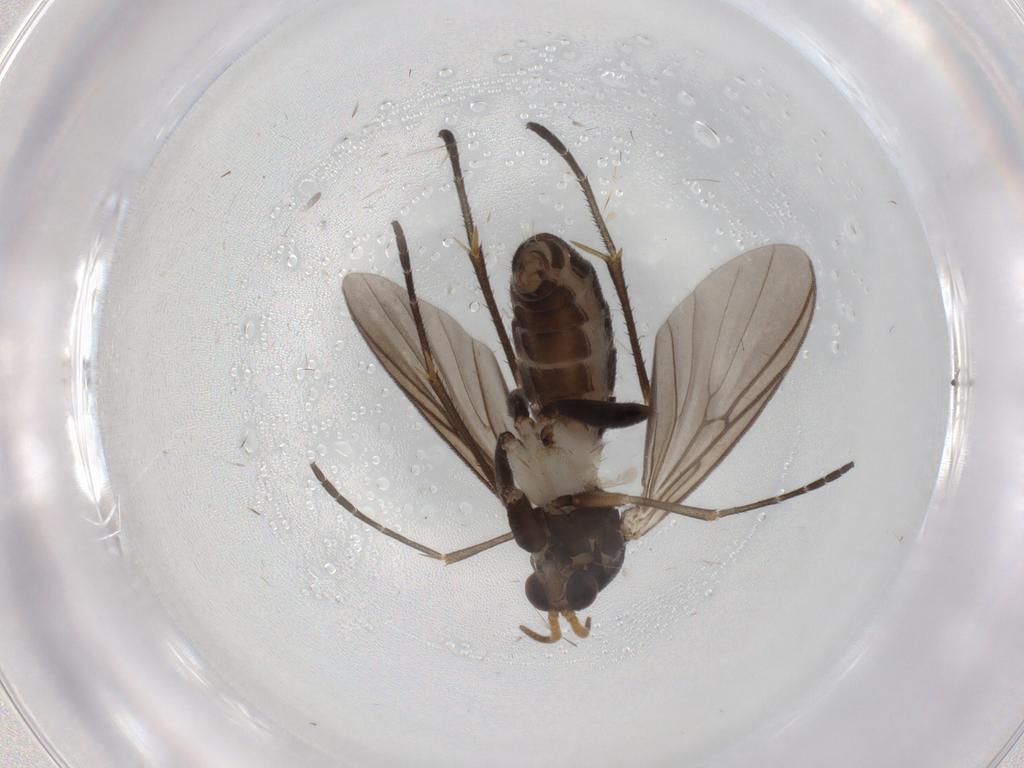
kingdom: Animalia
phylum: Arthropoda
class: Insecta
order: Diptera
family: Mycetophilidae
